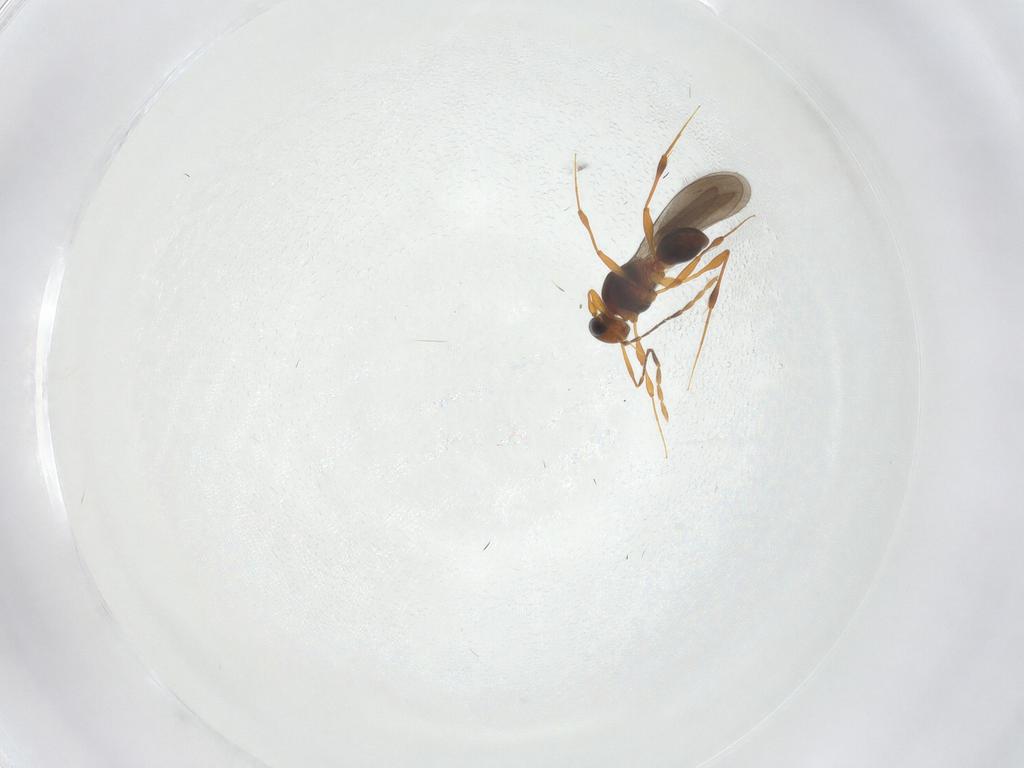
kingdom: Animalia
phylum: Arthropoda
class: Insecta
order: Hymenoptera
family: Platygastridae
